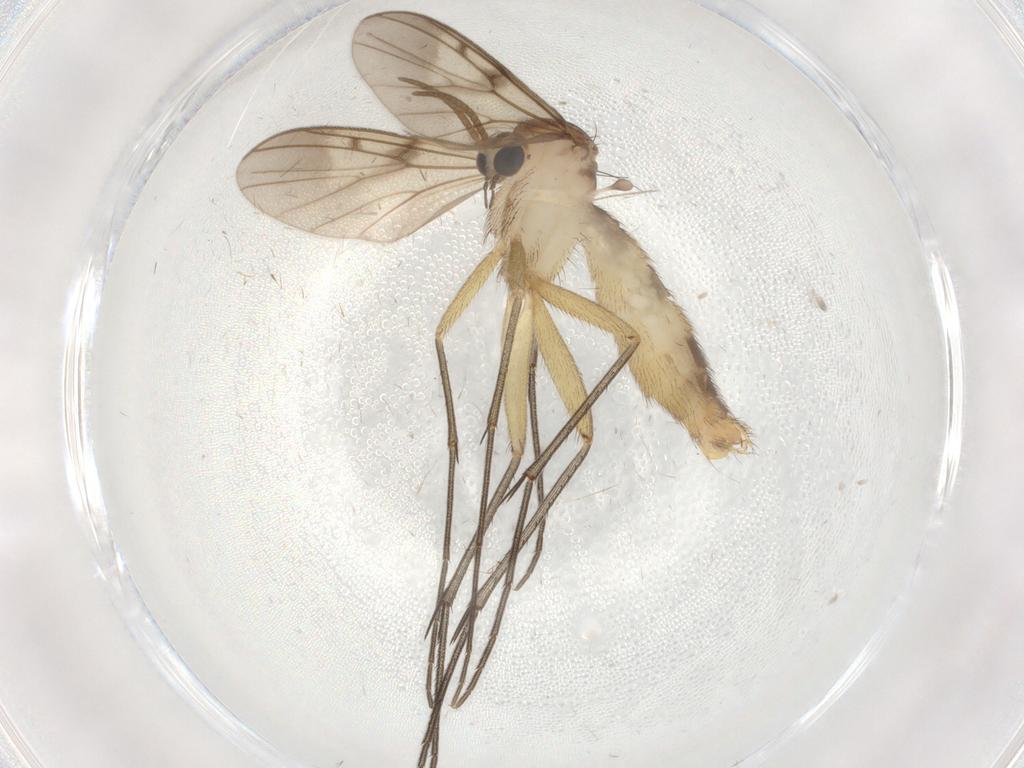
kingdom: Animalia
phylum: Arthropoda
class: Insecta
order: Diptera
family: Mycetophilidae
